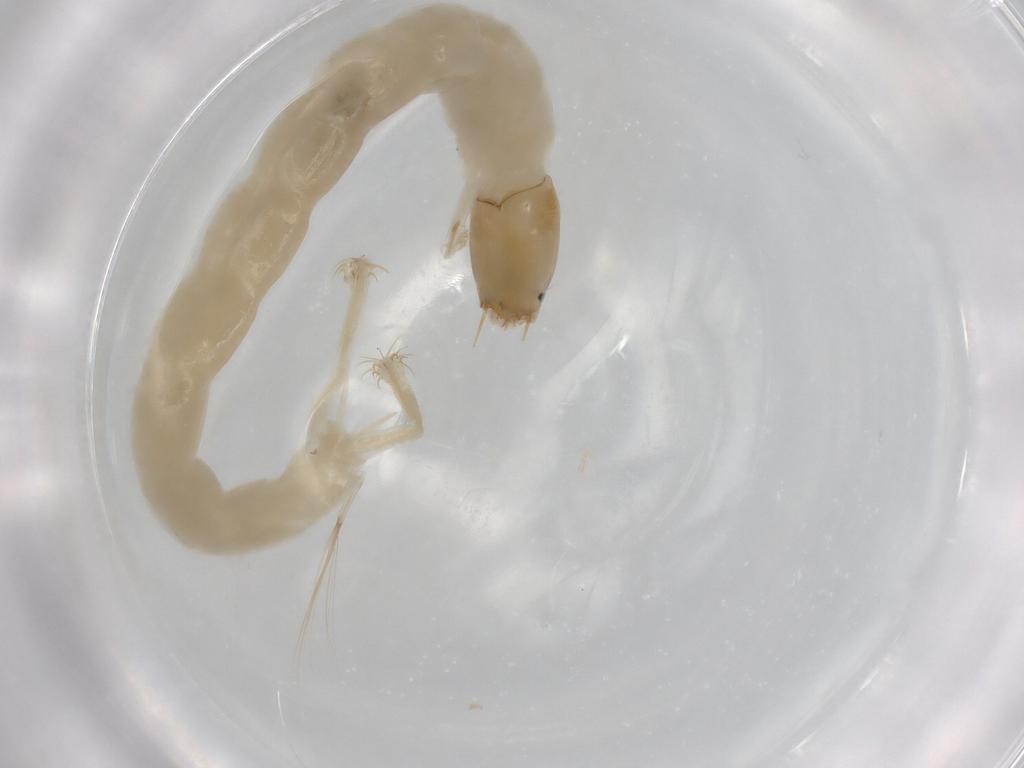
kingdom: Animalia
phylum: Arthropoda
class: Insecta
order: Diptera
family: Chironomidae
